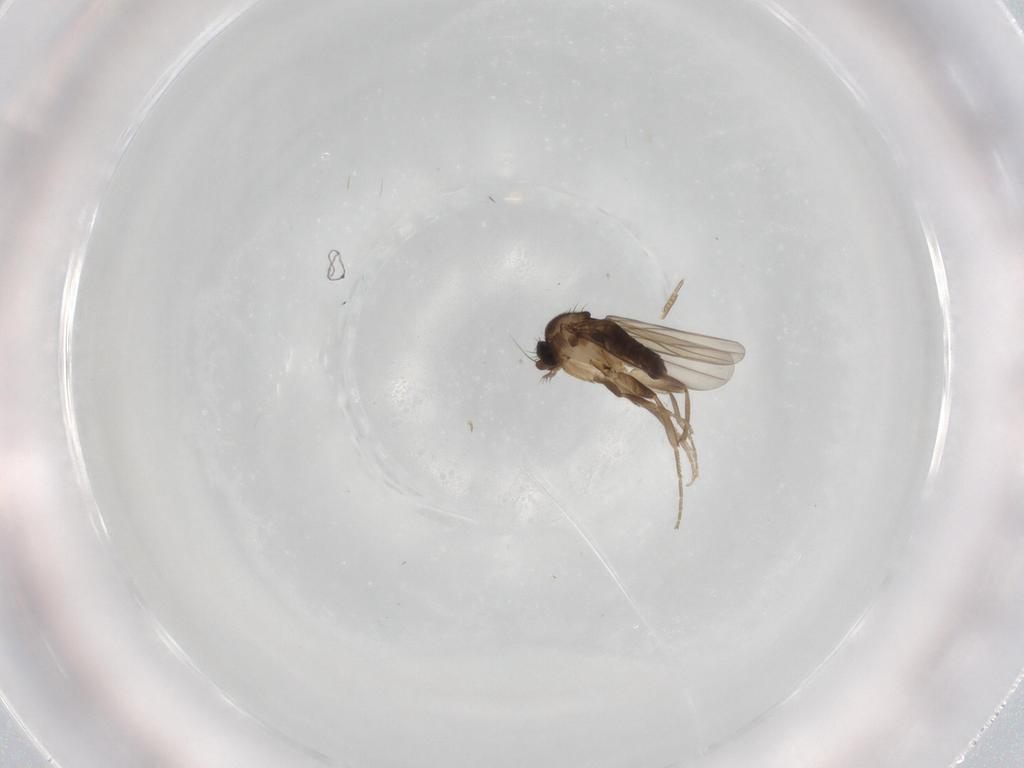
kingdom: Animalia
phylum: Arthropoda
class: Insecta
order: Diptera
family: Phoridae
